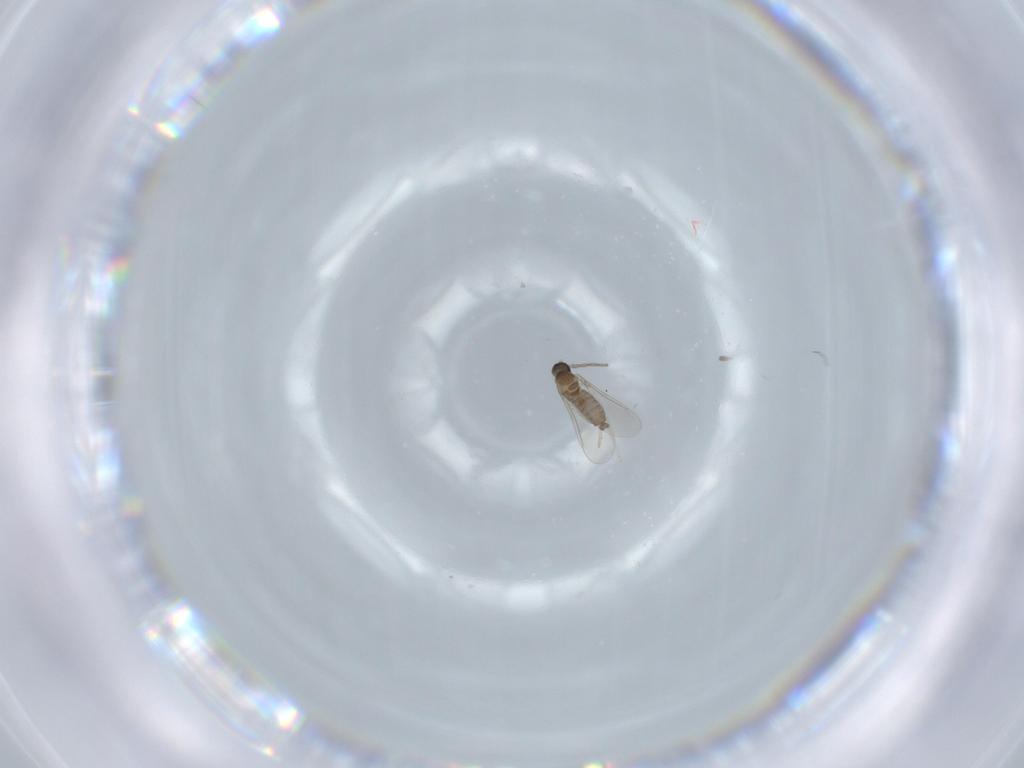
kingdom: Animalia
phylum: Arthropoda
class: Insecta
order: Diptera
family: Cecidomyiidae
